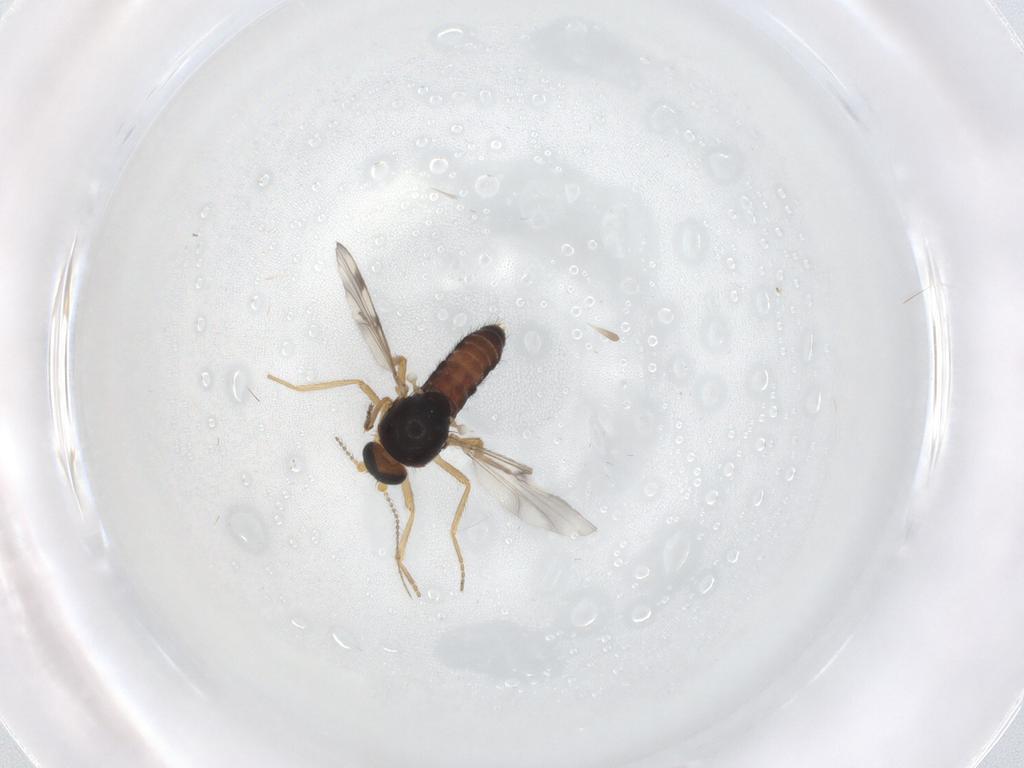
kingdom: Animalia
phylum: Arthropoda
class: Insecta
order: Diptera
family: Ceratopogonidae
